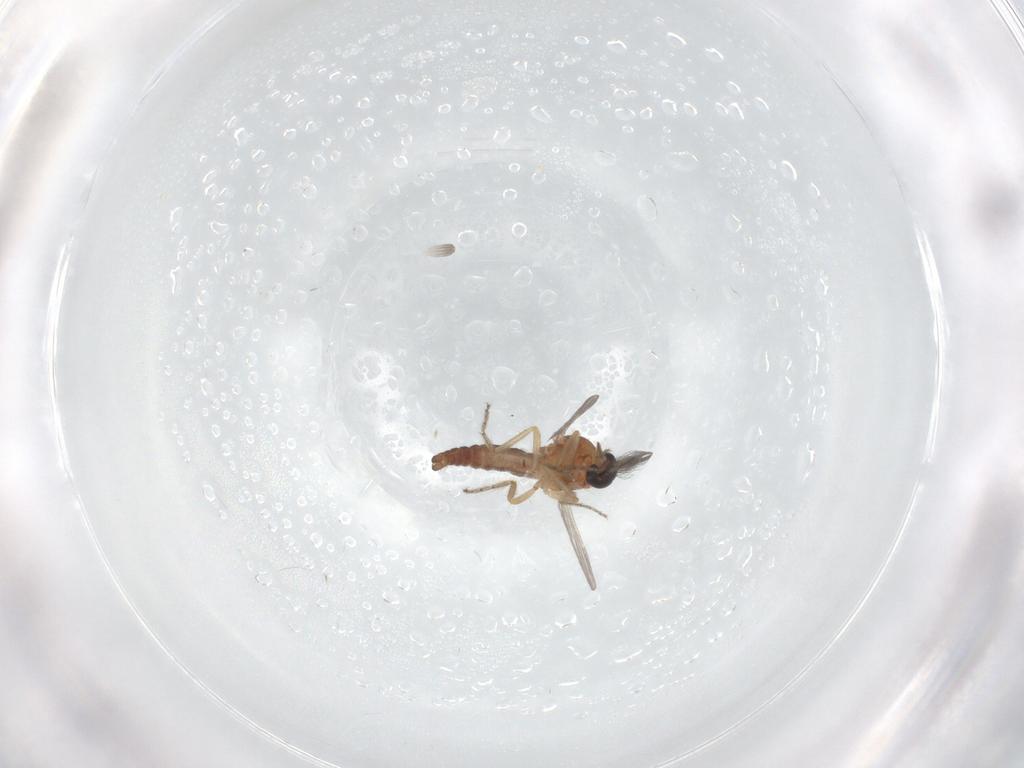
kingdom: Animalia
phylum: Arthropoda
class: Insecta
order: Diptera
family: Ceratopogonidae
